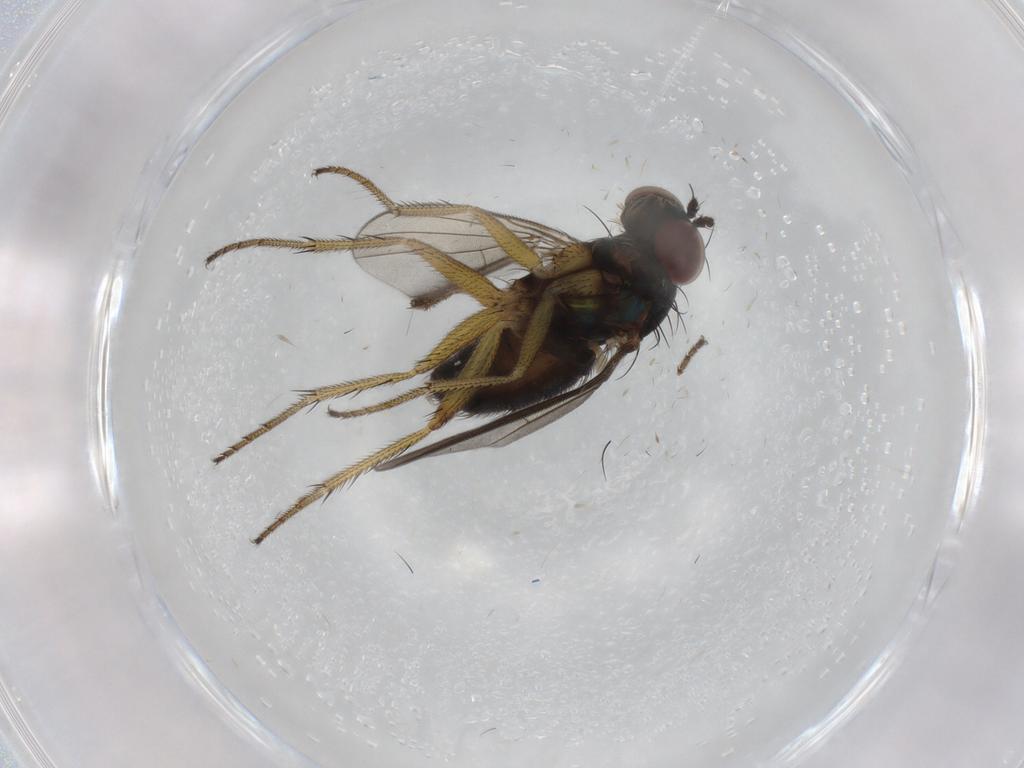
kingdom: Animalia
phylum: Arthropoda
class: Insecta
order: Diptera
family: Dolichopodidae
